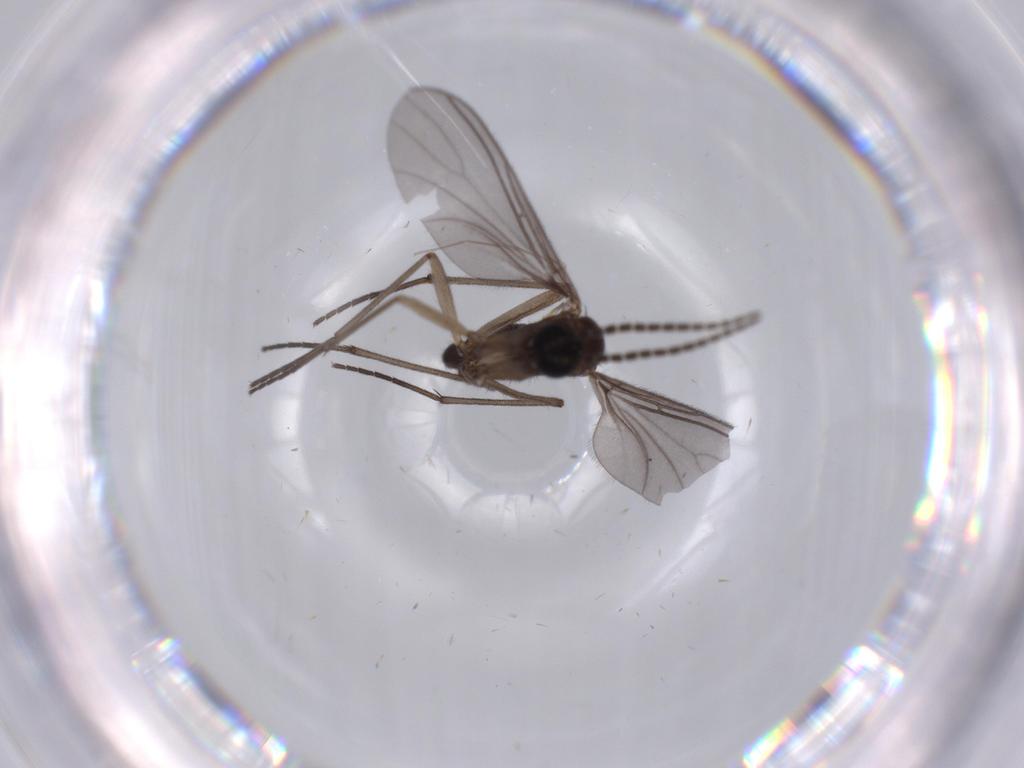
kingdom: Animalia
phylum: Arthropoda
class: Insecta
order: Diptera
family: Sciaridae
